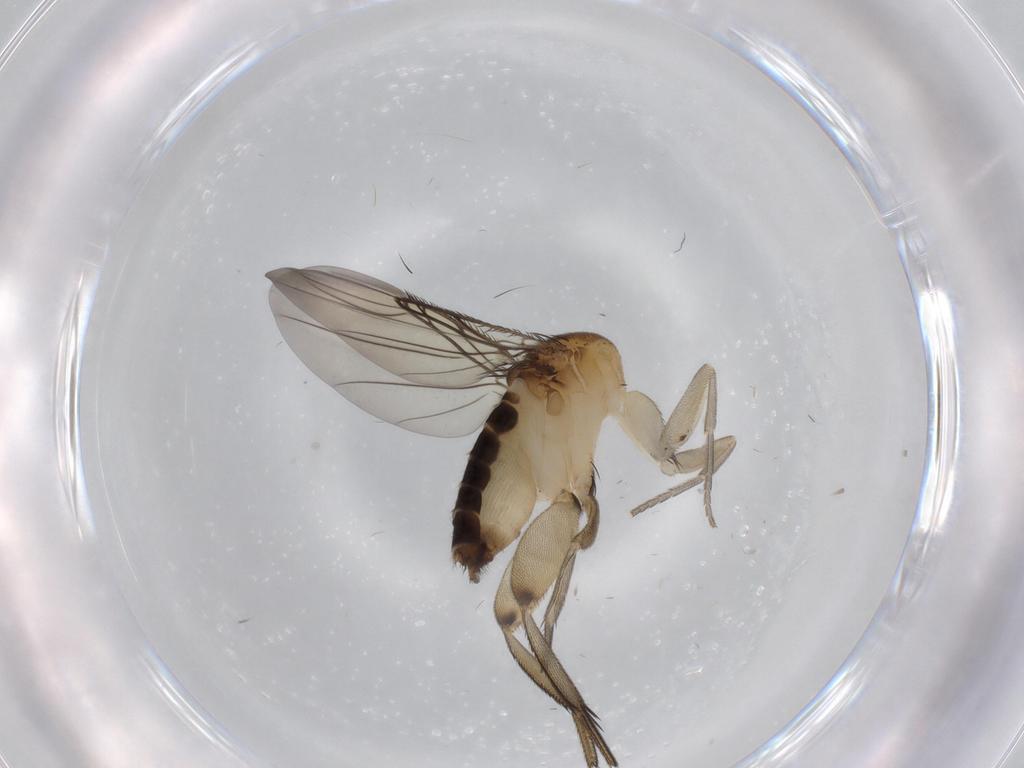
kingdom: Animalia
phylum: Arthropoda
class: Insecta
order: Diptera
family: Phoridae
